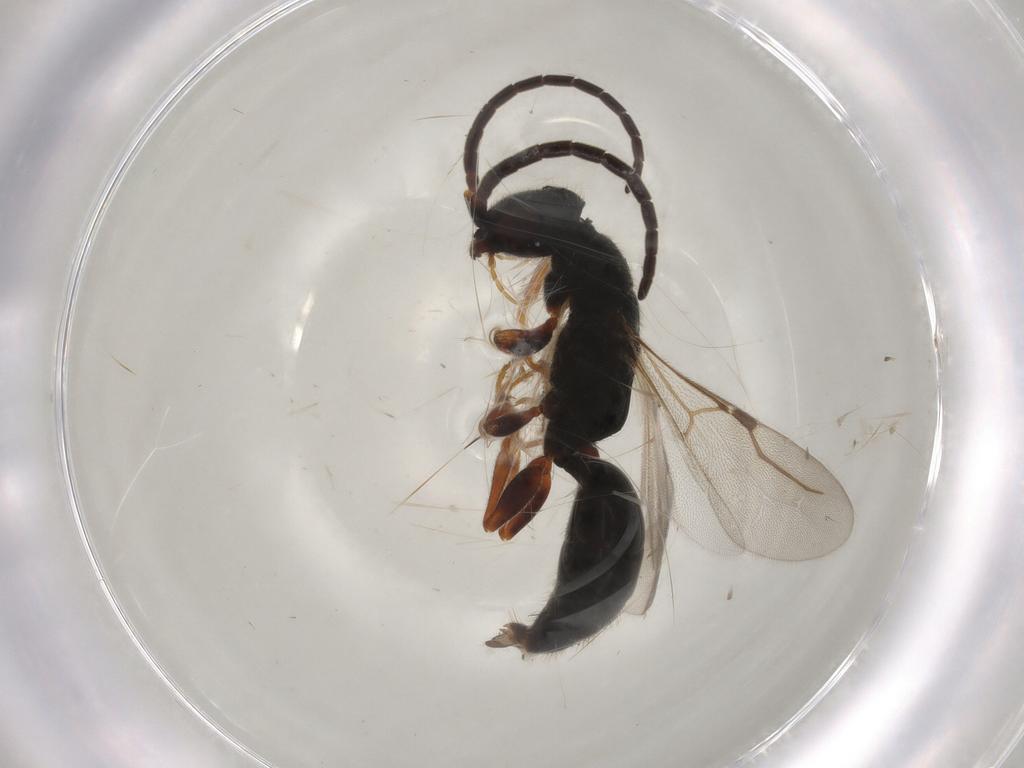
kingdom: Animalia
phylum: Arthropoda
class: Insecta
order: Hymenoptera
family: Bethylidae
